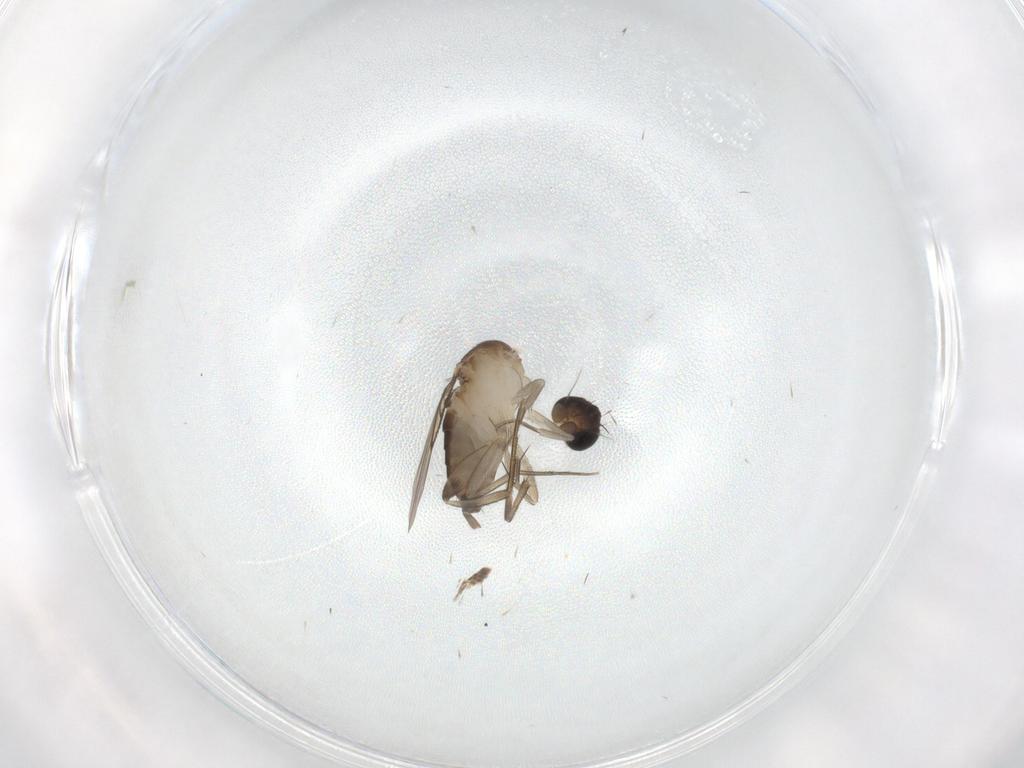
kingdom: Animalia
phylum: Arthropoda
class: Insecta
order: Diptera
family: Phoridae
